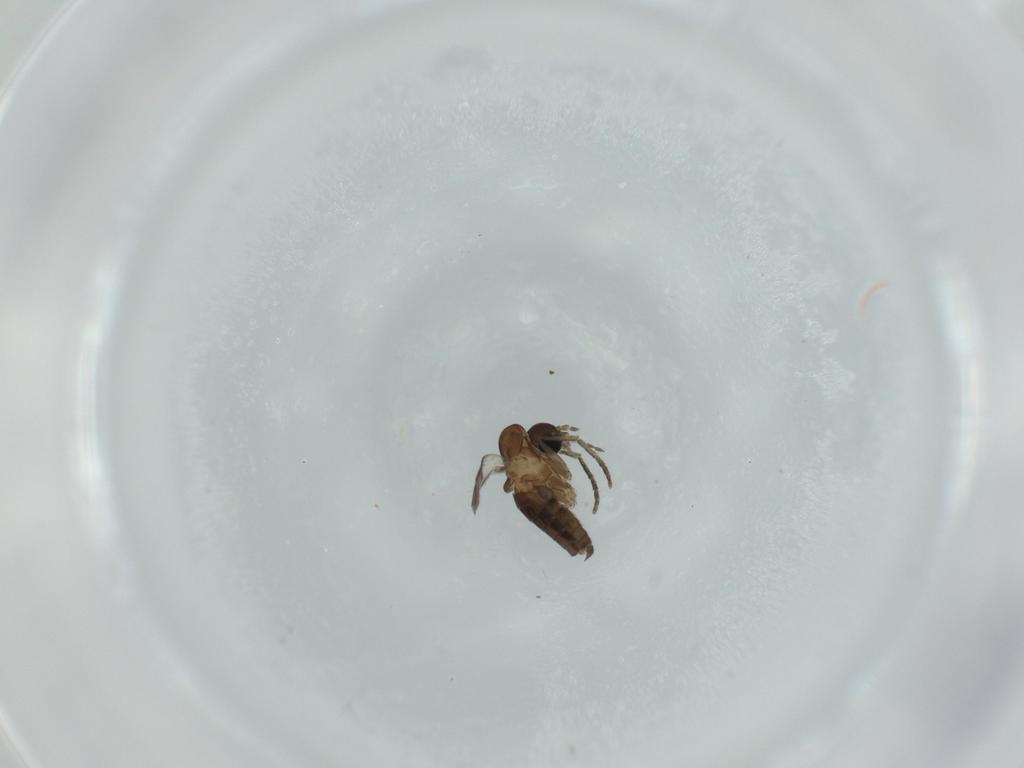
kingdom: Animalia
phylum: Arthropoda
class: Insecta
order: Diptera
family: Psychodidae
